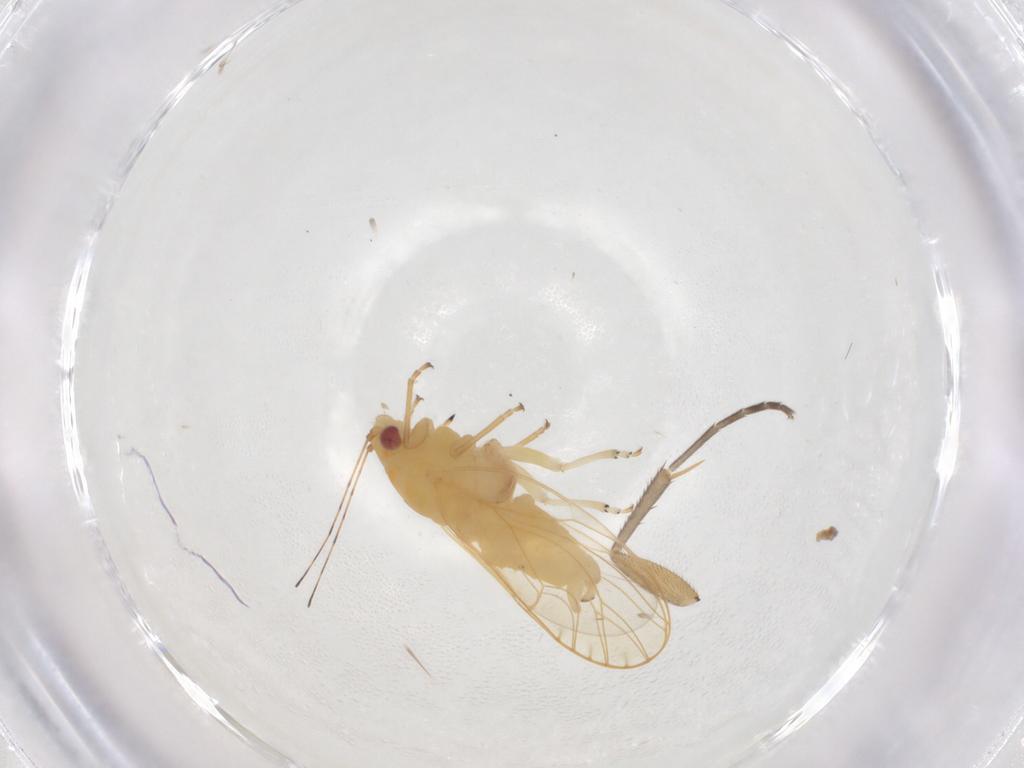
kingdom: Animalia
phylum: Arthropoda
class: Insecta
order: Hemiptera
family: Psyllidae
